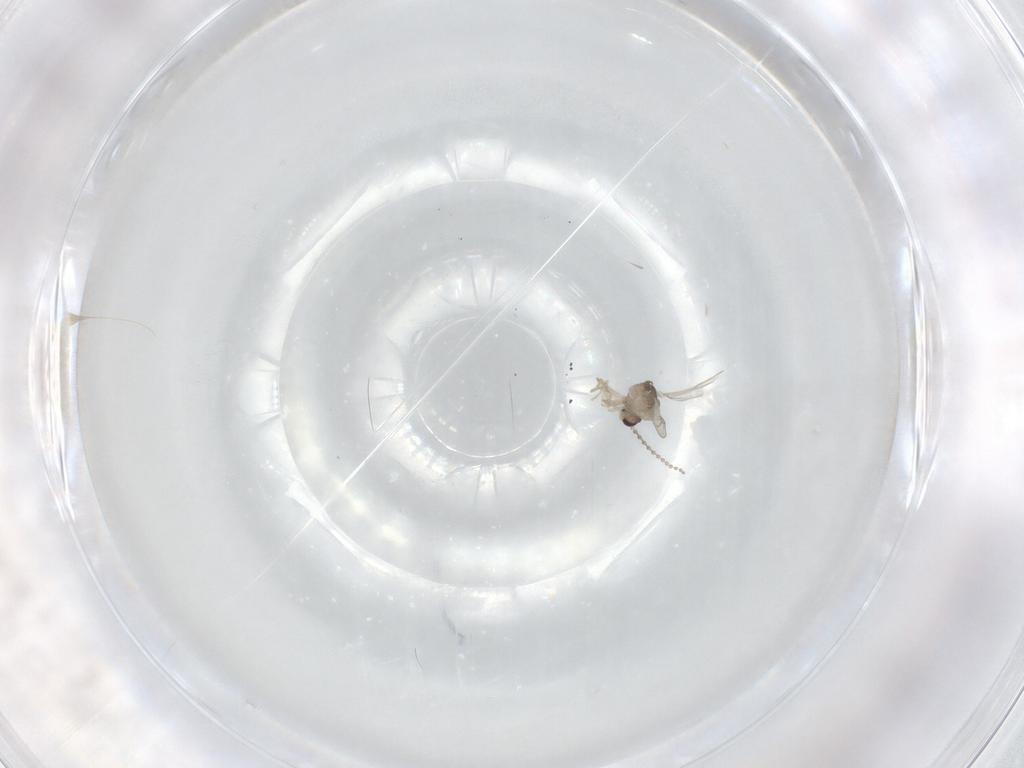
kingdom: Animalia
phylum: Arthropoda
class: Insecta
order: Diptera
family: Cecidomyiidae
